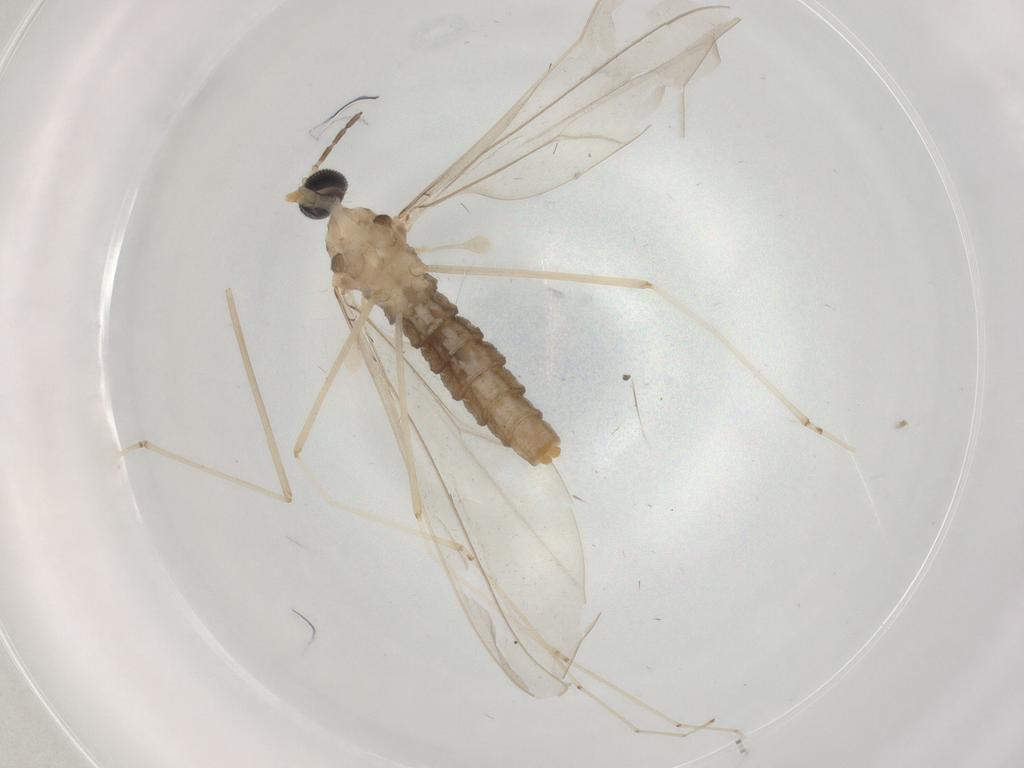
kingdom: Animalia
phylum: Arthropoda
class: Insecta
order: Diptera
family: Cecidomyiidae
